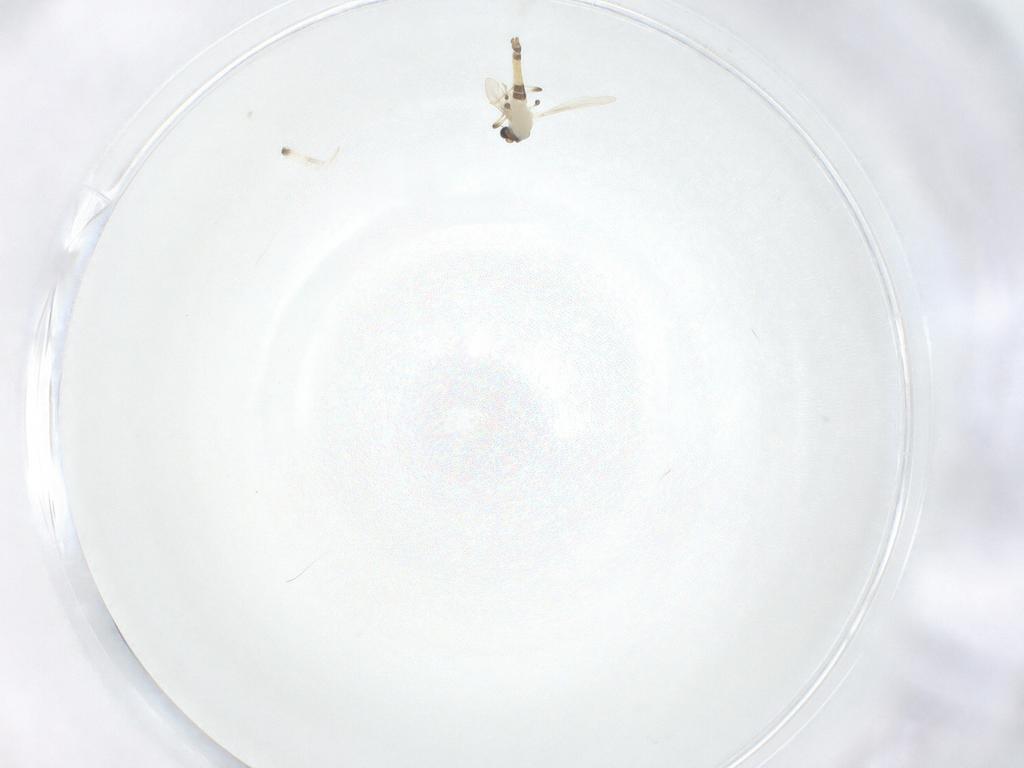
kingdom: Animalia
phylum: Arthropoda
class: Insecta
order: Diptera
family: Chironomidae
